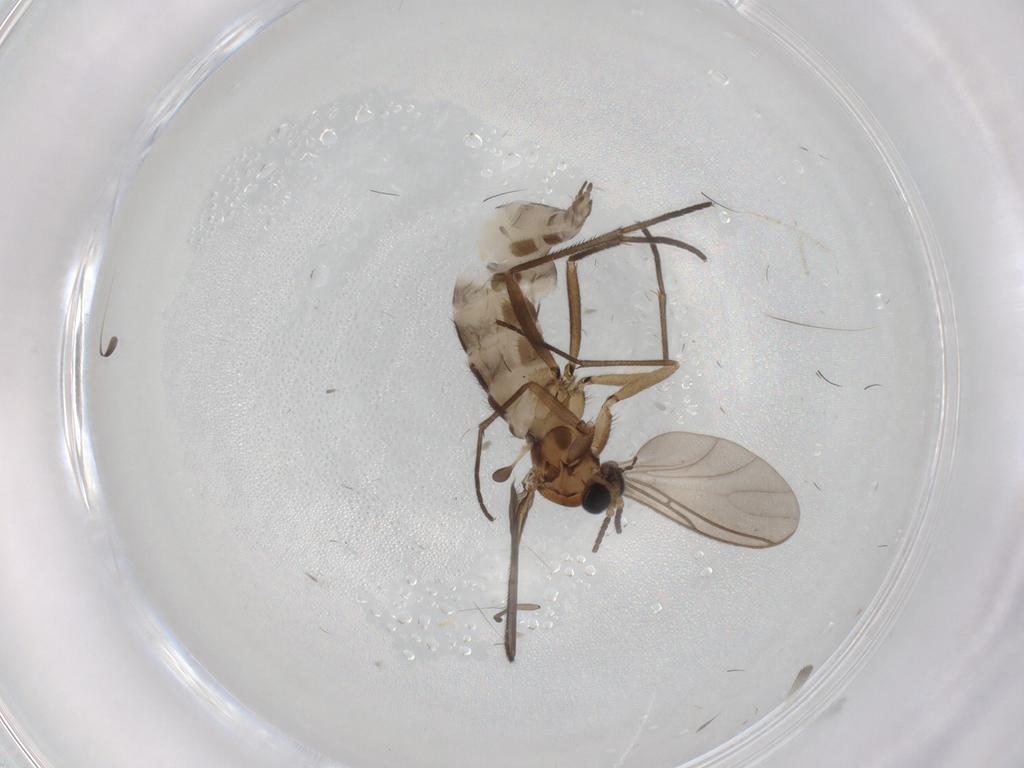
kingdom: Animalia
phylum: Arthropoda
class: Insecta
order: Diptera
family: Sciaridae
